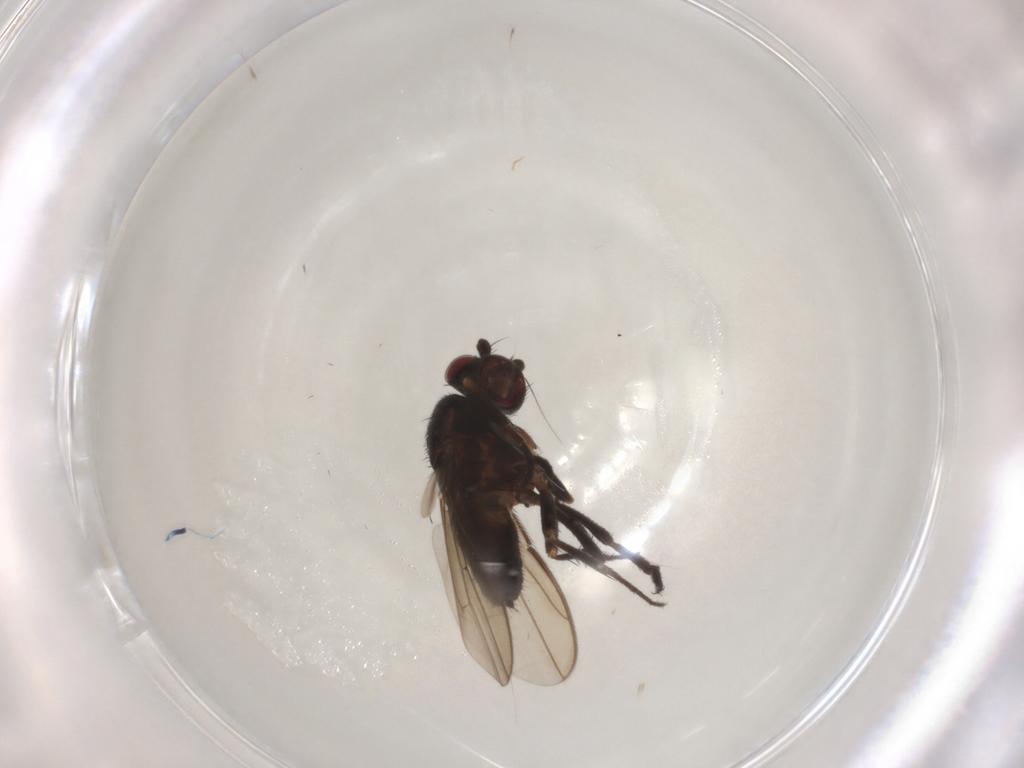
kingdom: Animalia
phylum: Arthropoda
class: Insecta
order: Diptera
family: Sphaeroceridae
